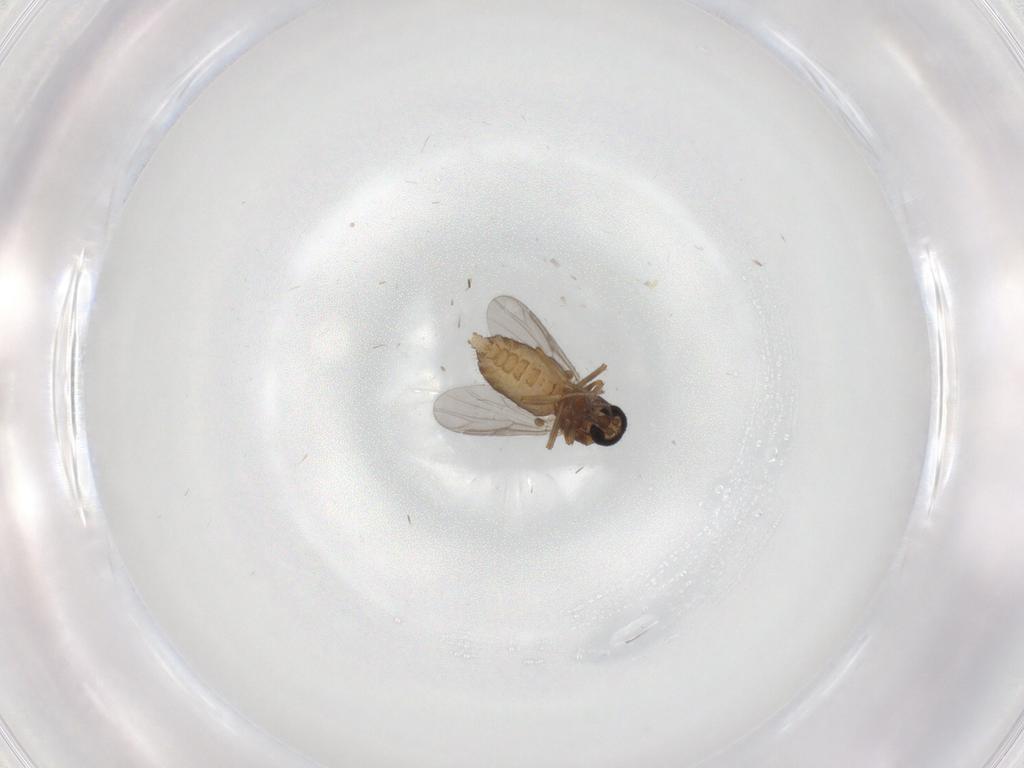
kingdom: Animalia
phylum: Arthropoda
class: Insecta
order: Diptera
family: Ceratopogonidae
